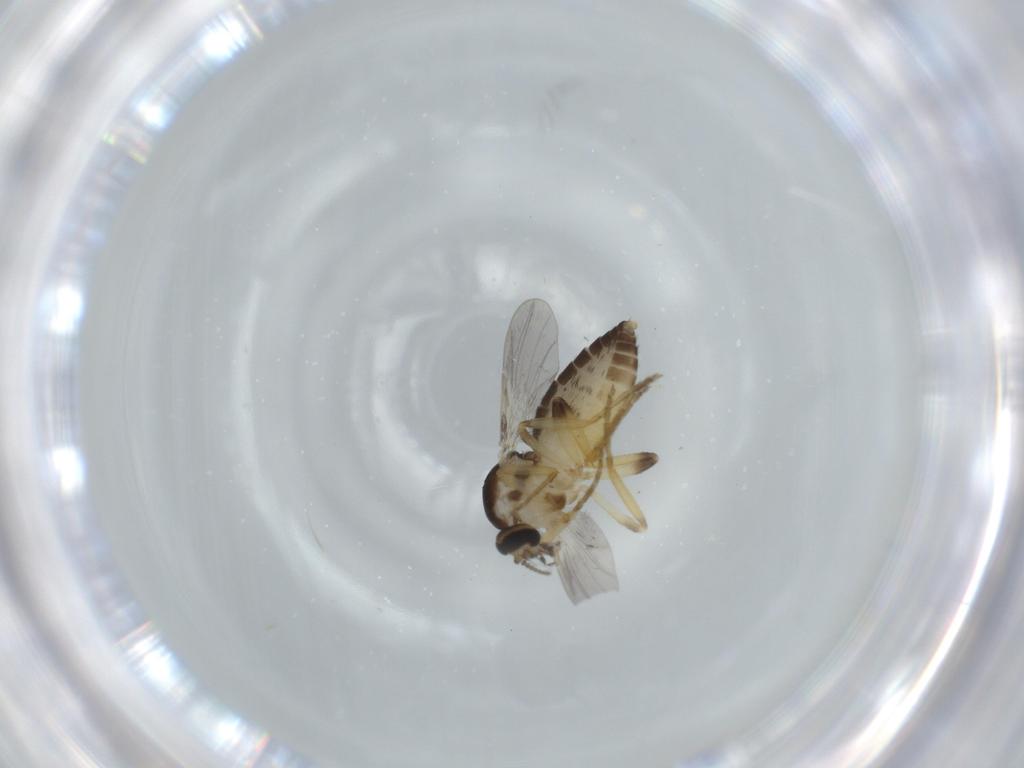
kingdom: Animalia
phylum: Arthropoda
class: Insecta
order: Diptera
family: Ceratopogonidae
